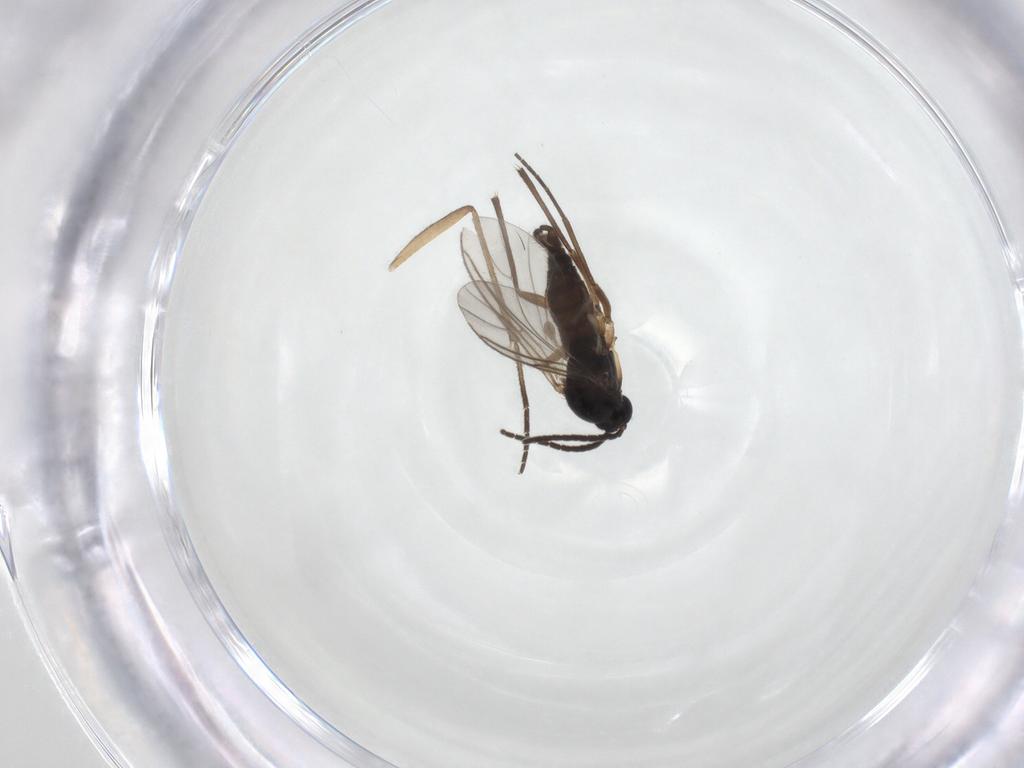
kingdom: Animalia
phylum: Arthropoda
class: Insecta
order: Diptera
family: Sciaridae
